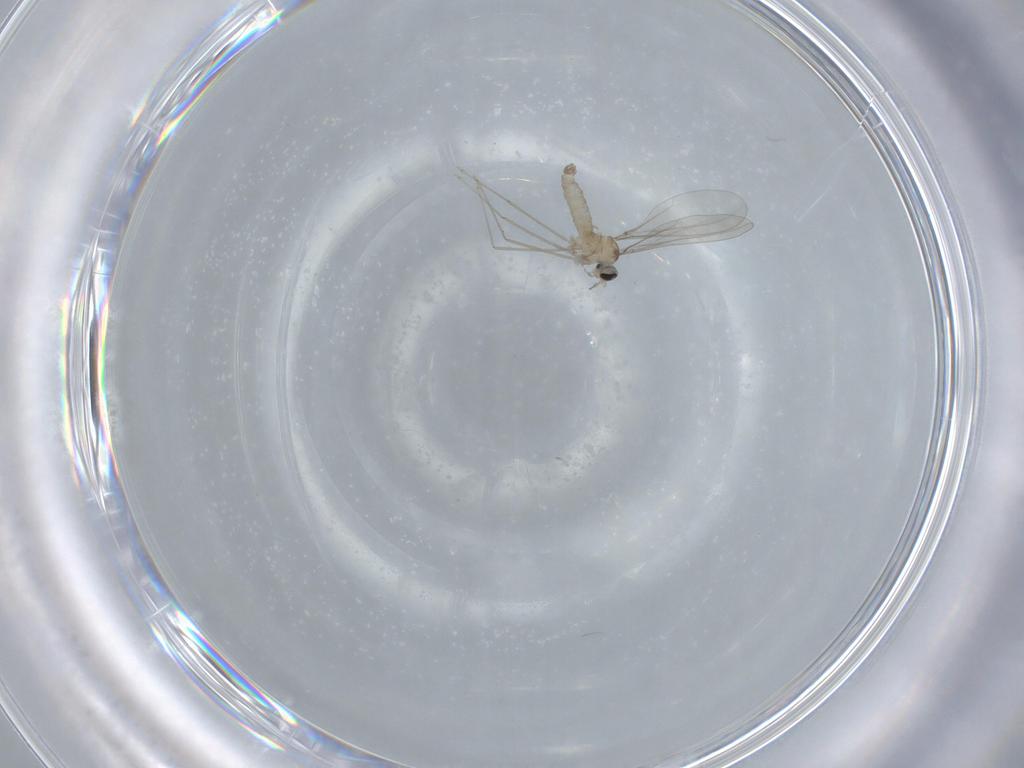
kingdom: Animalia
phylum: Arthropoda
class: Insecta
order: Diptera
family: Cecidomyiidae
